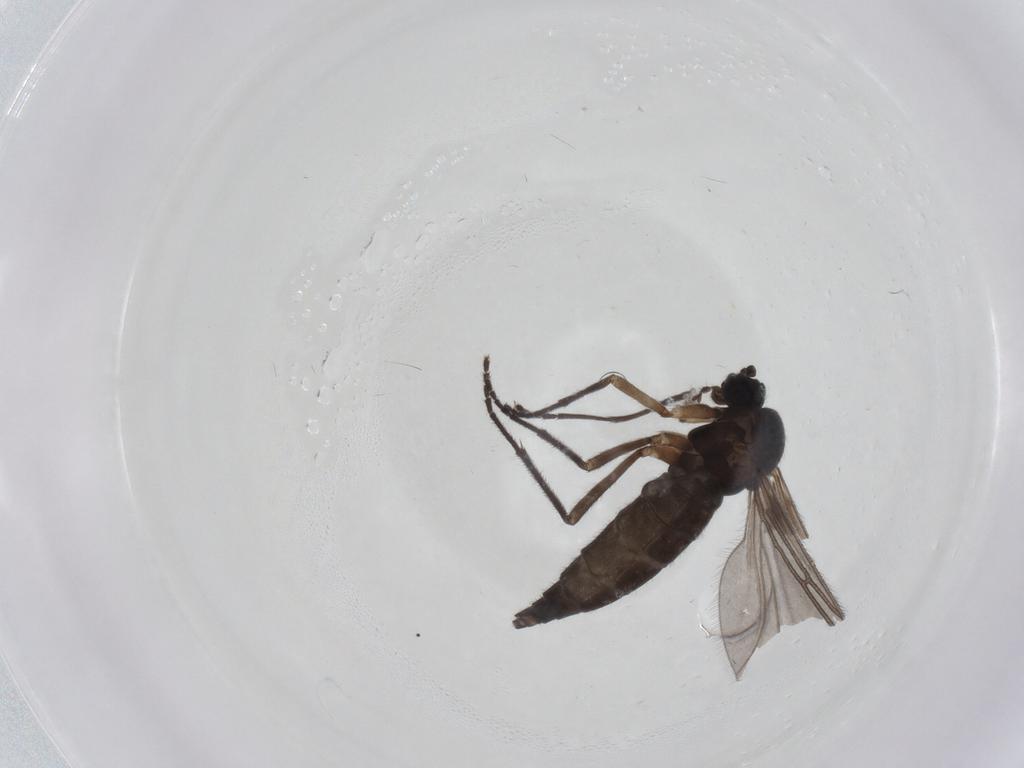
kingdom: Animalia
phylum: Arthropoda
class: Insecta
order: Diptera
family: Sciaridae
